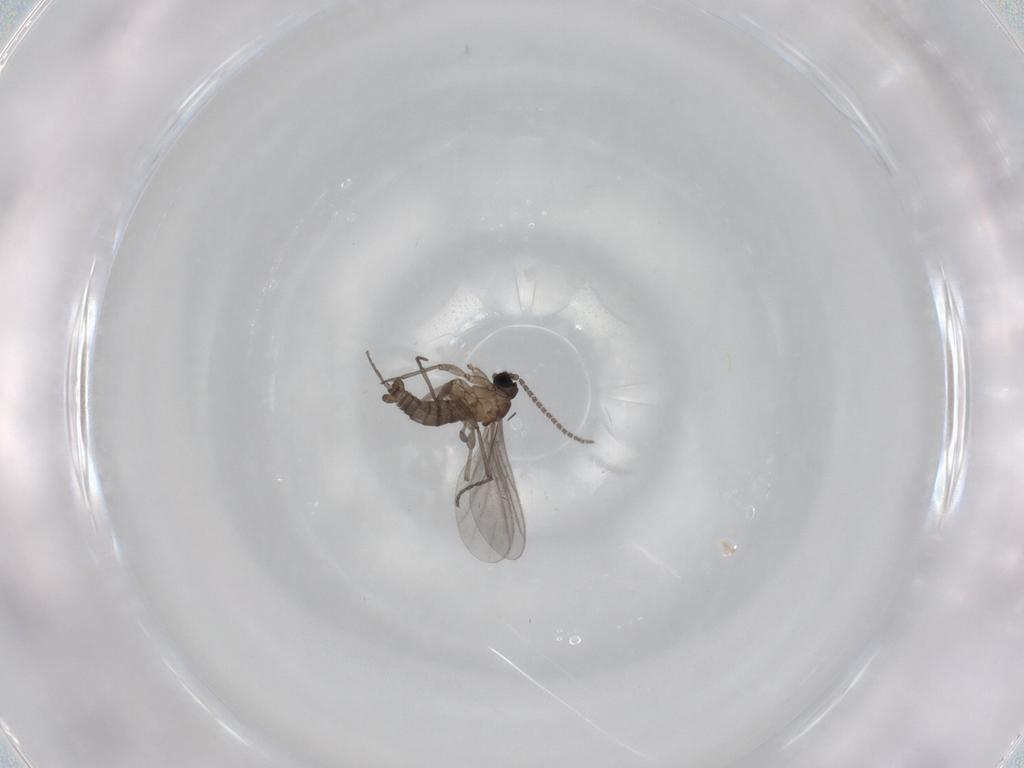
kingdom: Animalia
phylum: Arthropoda
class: Insecta
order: Diptera
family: Sciaridae
